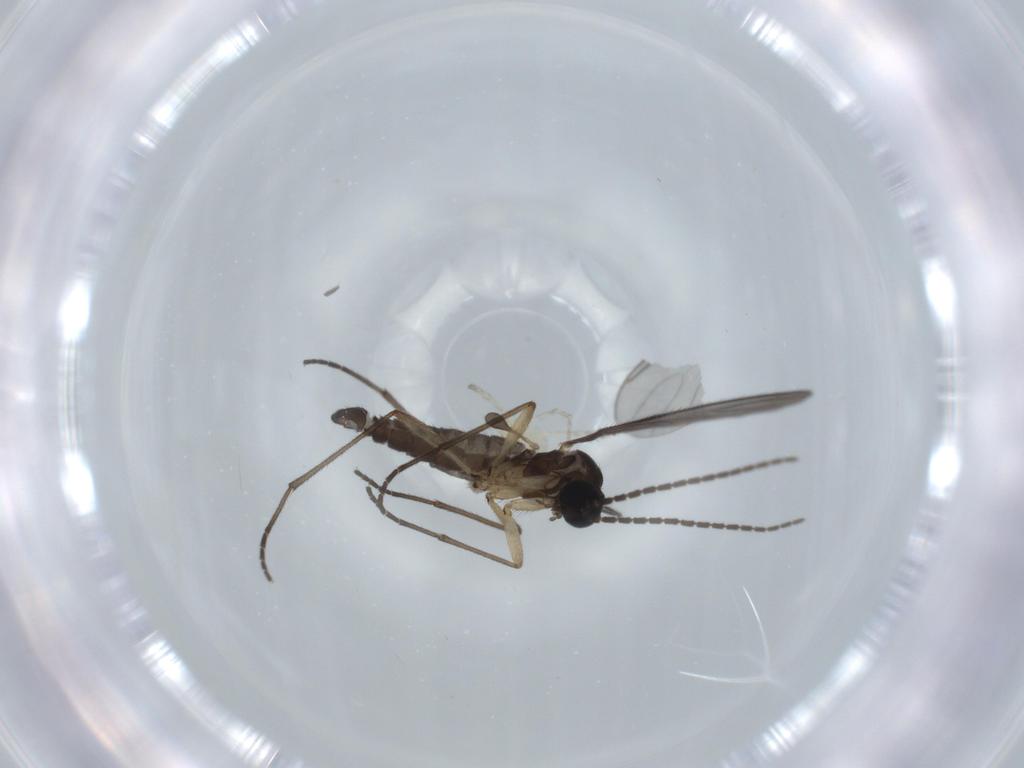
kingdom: Animalia
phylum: Arthropoda
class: Insecta
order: Diptera
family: Sciaridae
